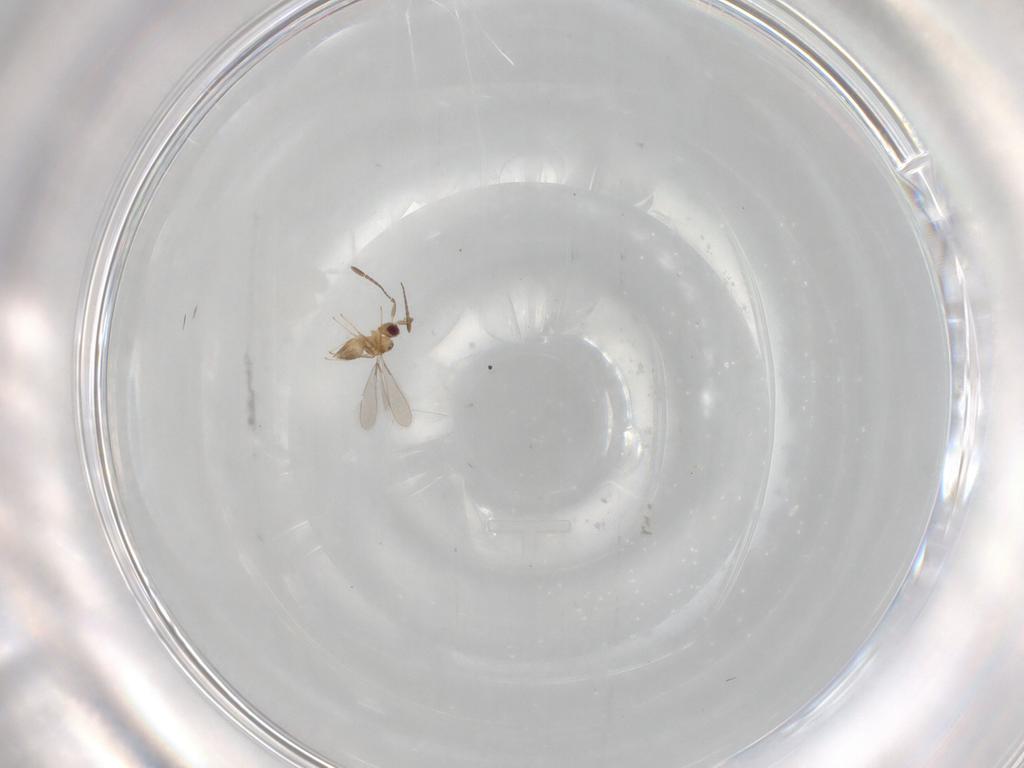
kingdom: Animalia
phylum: Arthropoda
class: Insecta
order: Hymenoptera
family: Mymaridae
